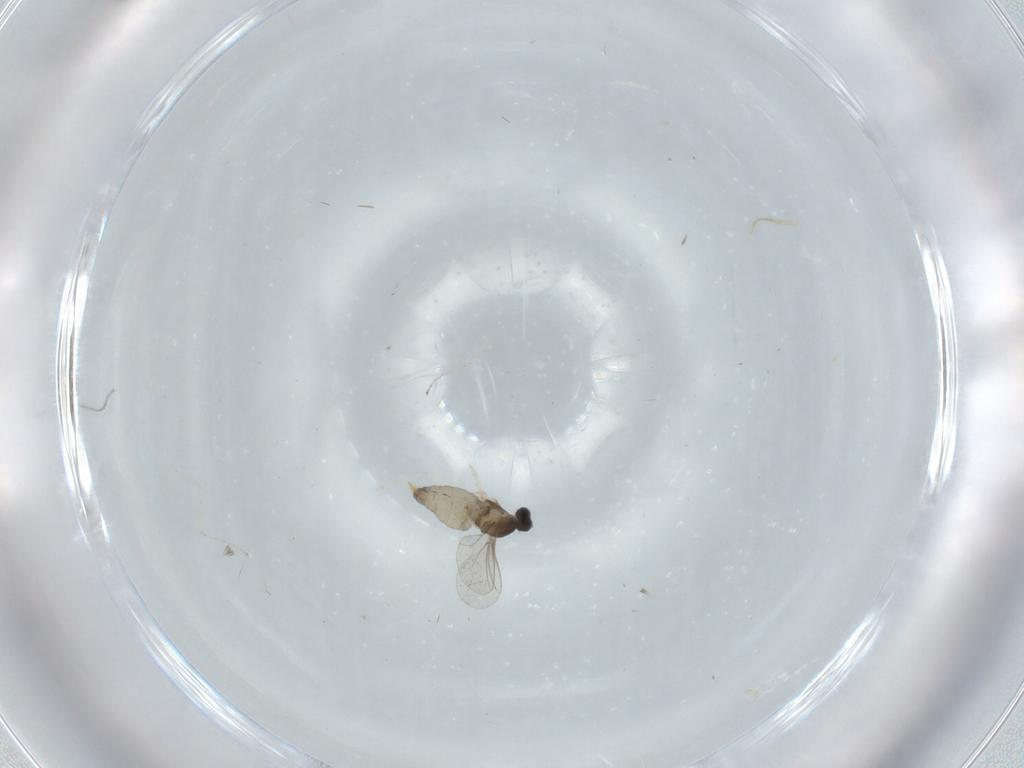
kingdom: Animalia
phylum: Arthropoda
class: Insecta
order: Diptera
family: Cecidomyiidae
